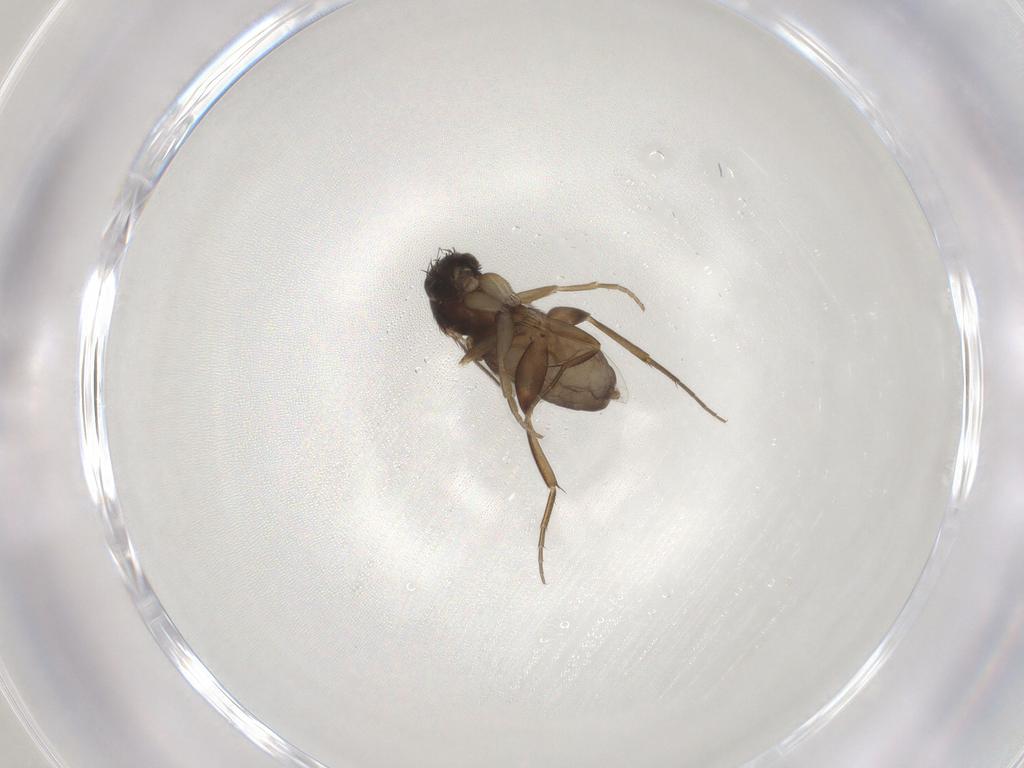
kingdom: Animalia
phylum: Arthropoda
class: Insecta
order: Diptera
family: Phoridae
